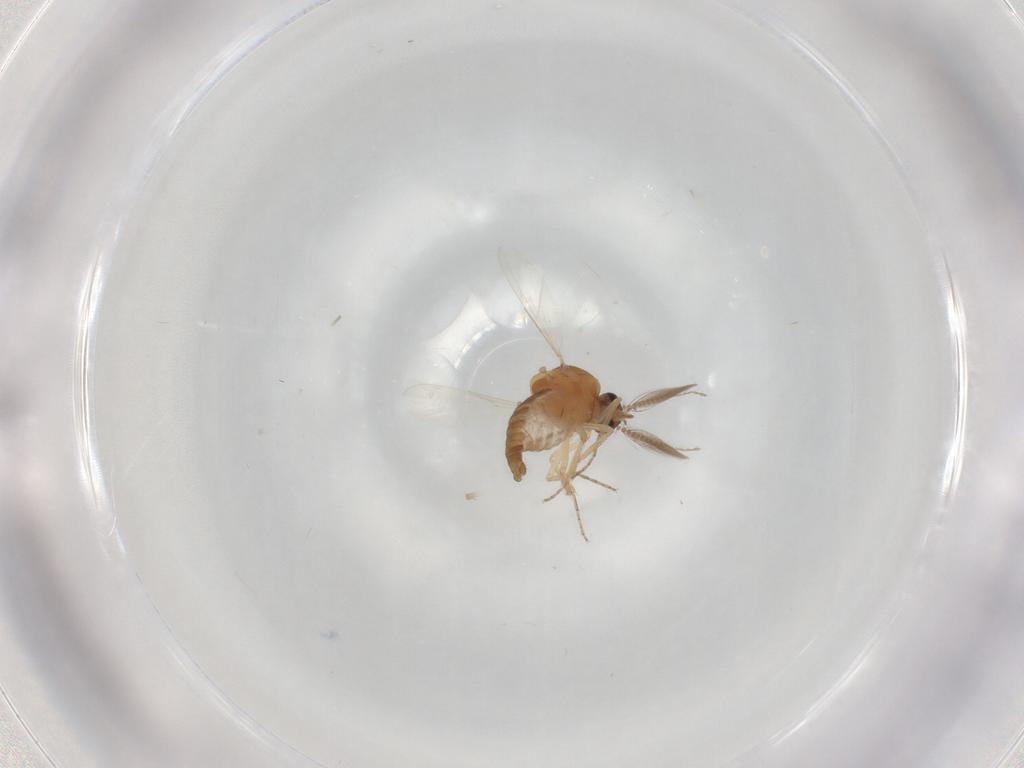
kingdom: Animalia
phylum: Arthropoda
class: Insecta
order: Diptera
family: Ceratopogonidae
